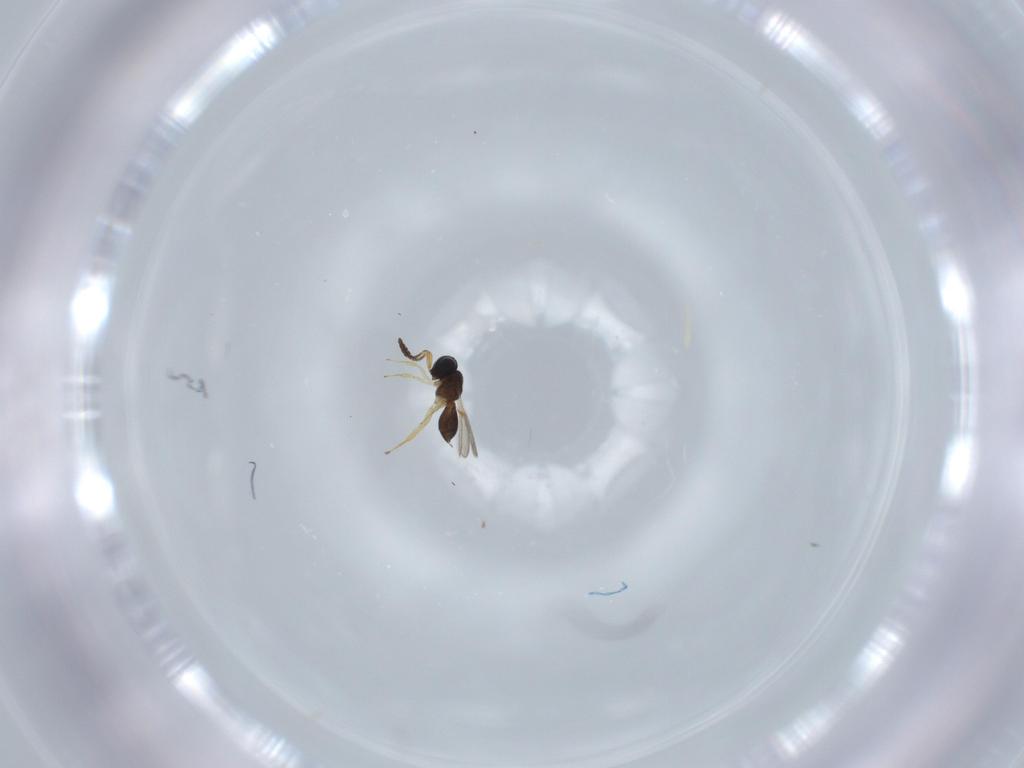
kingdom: Animalia
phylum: Arthropoda
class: Insecta
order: Hymenoptera
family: Scelionidae
